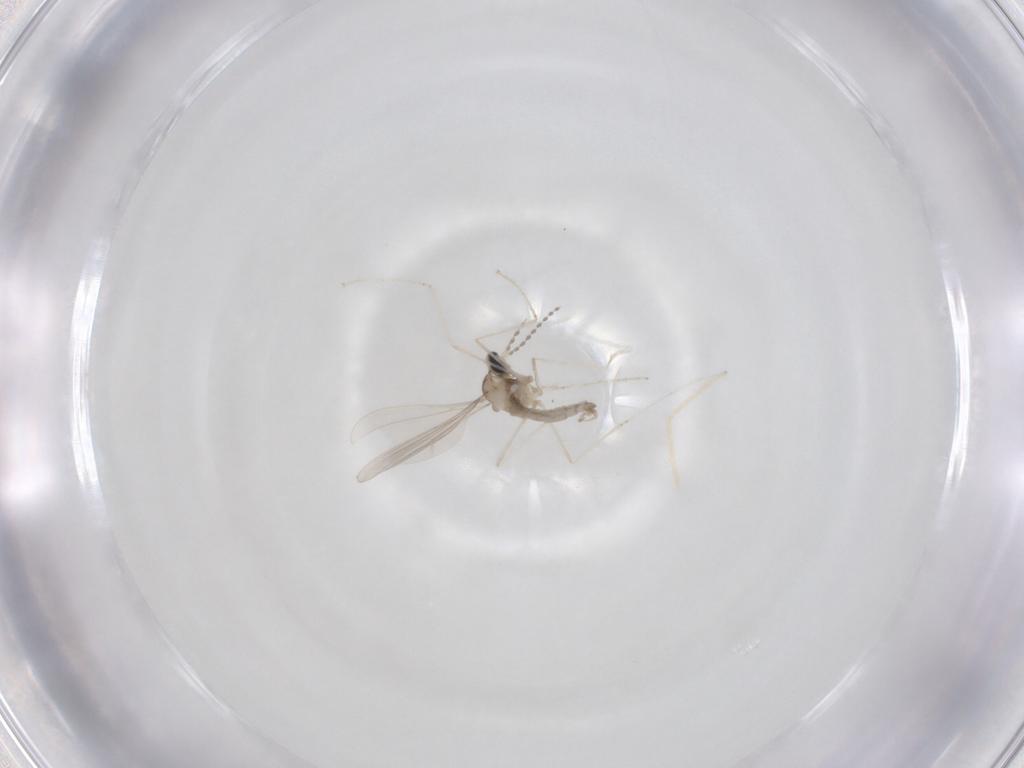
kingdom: Animalia
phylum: Arthropoda
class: Insecta
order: Diptera
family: Cecidomyiidae
